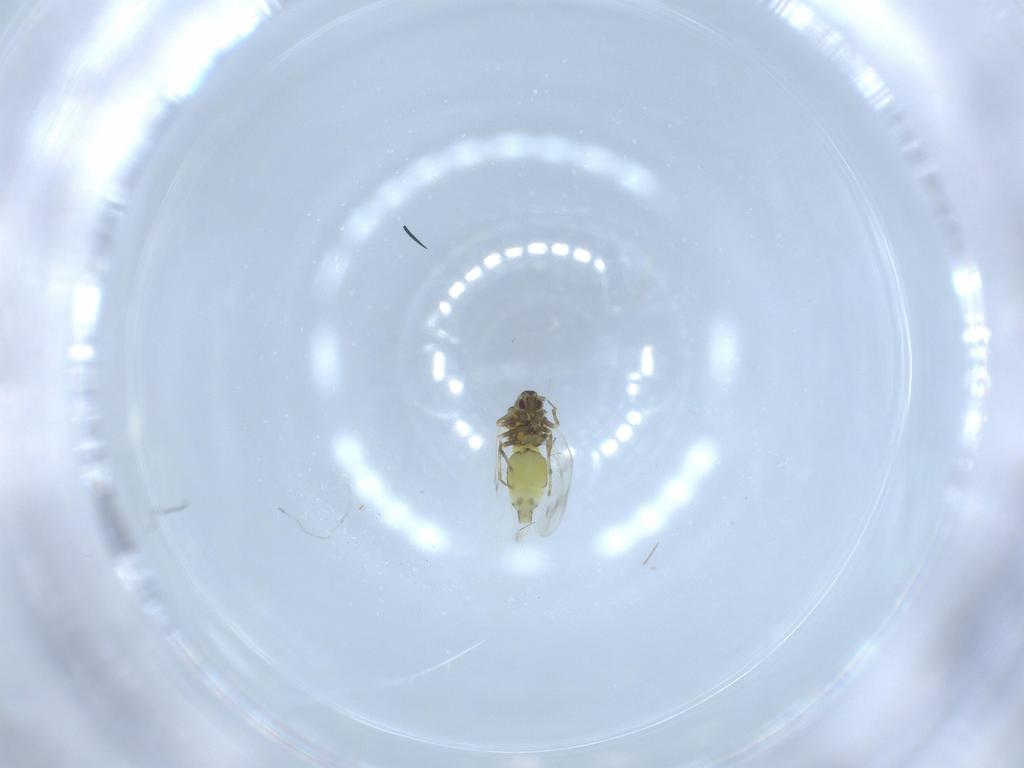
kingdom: Animalia
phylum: Arthropoda
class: Insecta
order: Hemiptera
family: Aleyrodidae
